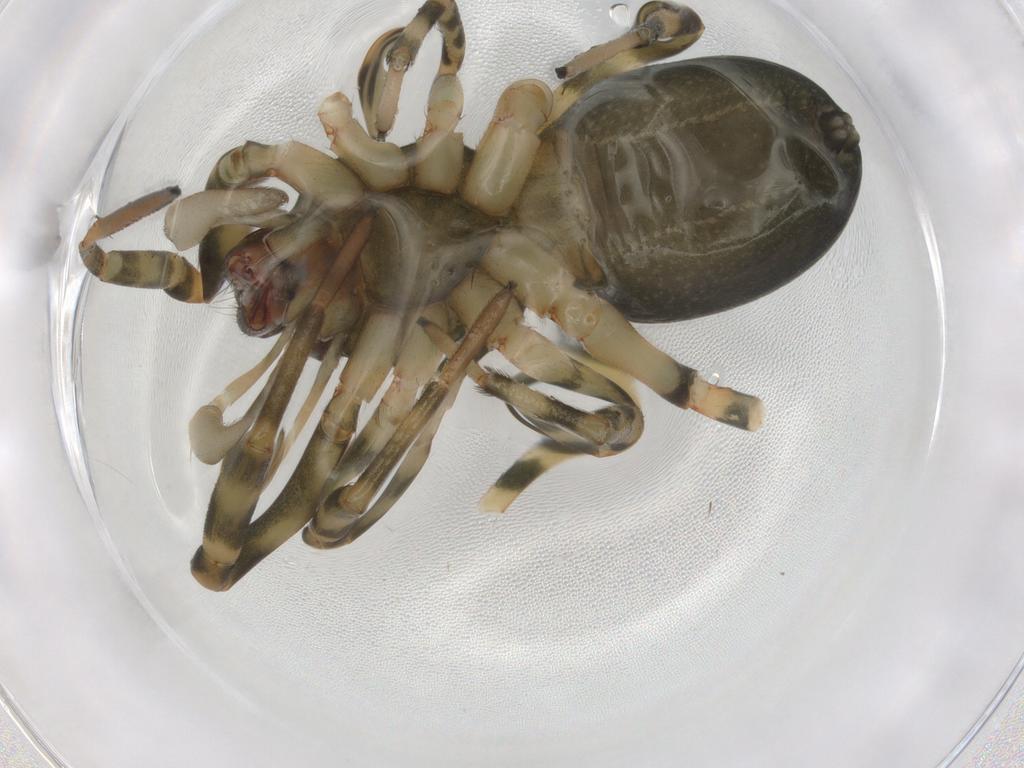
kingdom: Animalia
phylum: Arthropoda
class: Arachnida
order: Araneae
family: Trachelidae
